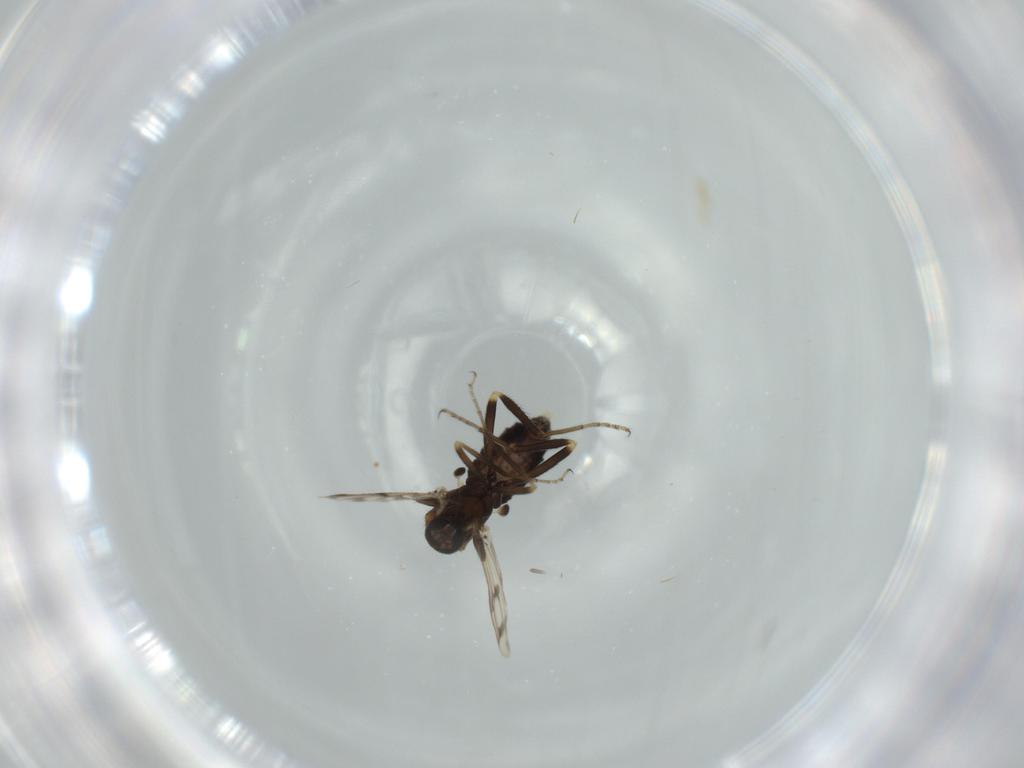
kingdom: Animalia
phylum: Arthropoda
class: Insecta
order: Diptera
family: Ceratopogonidae
